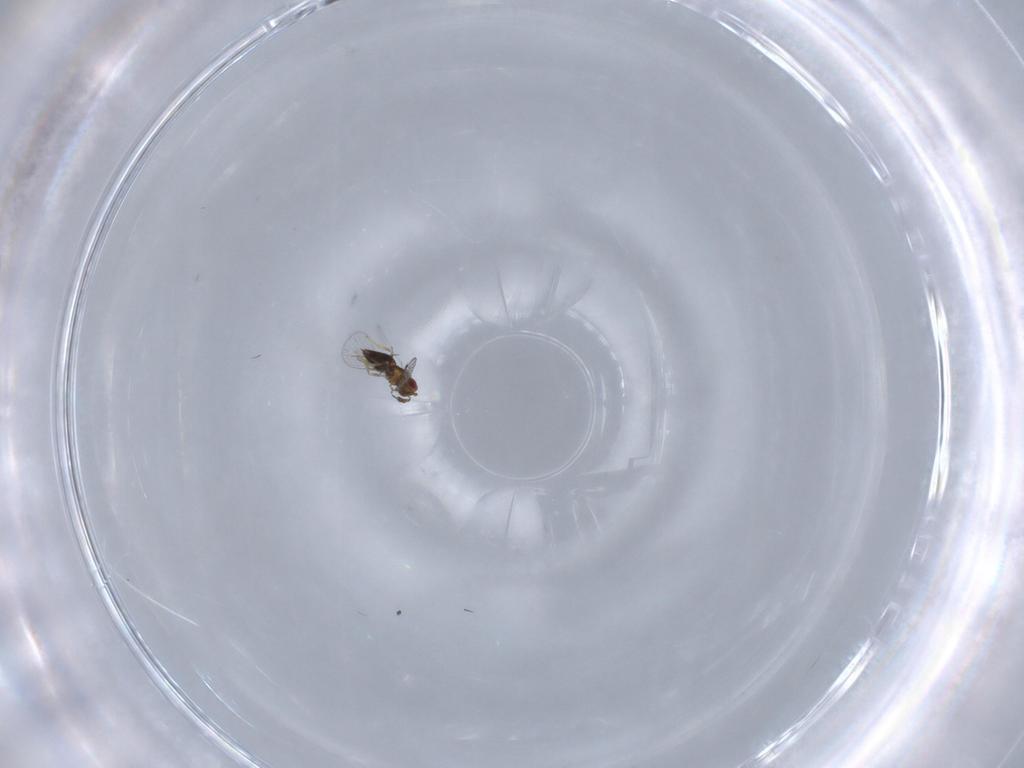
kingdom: Animalia
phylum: Arthropoda
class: Insecta
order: Hymenoptera
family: Trichogrammatidae
